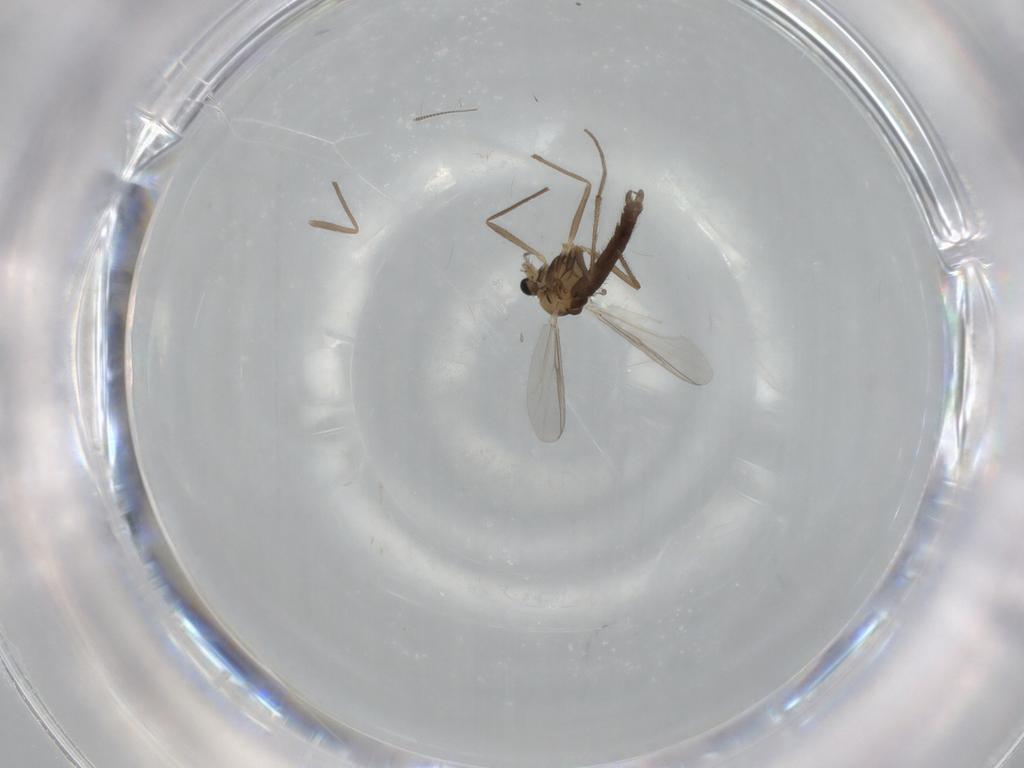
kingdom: Animalia
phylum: Arthropoda
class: Insecta
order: Diptera
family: Chironomidae
